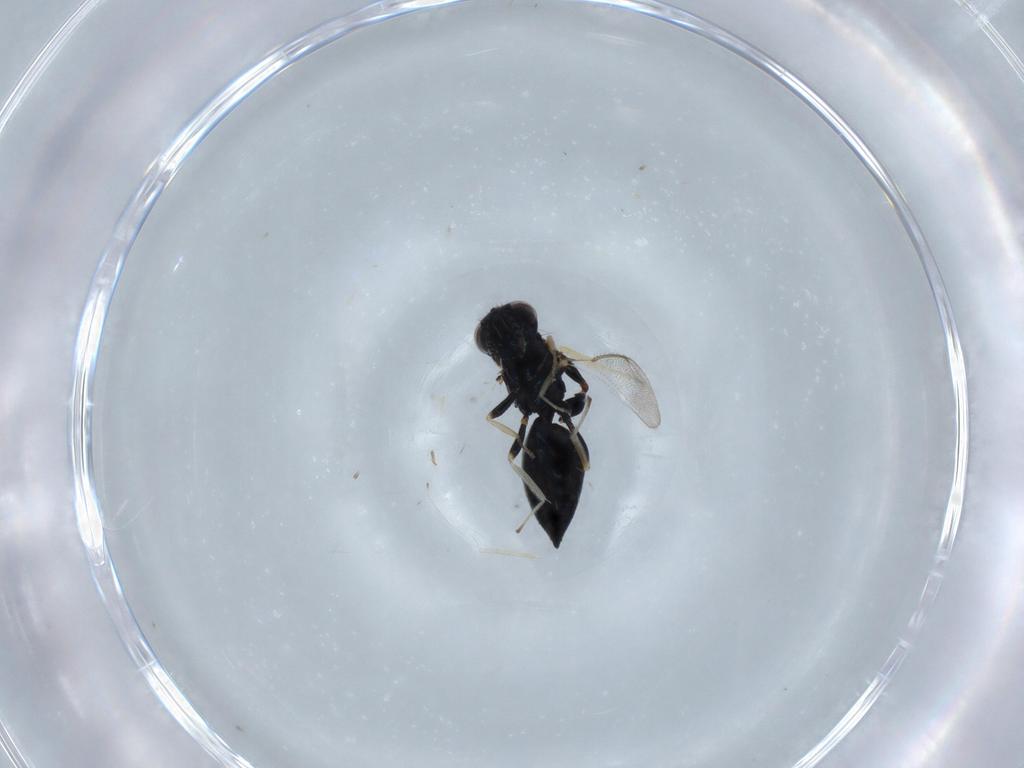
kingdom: Animalia
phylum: Arthropoda
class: Insecta
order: Hymenoptera
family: Eulophidae
